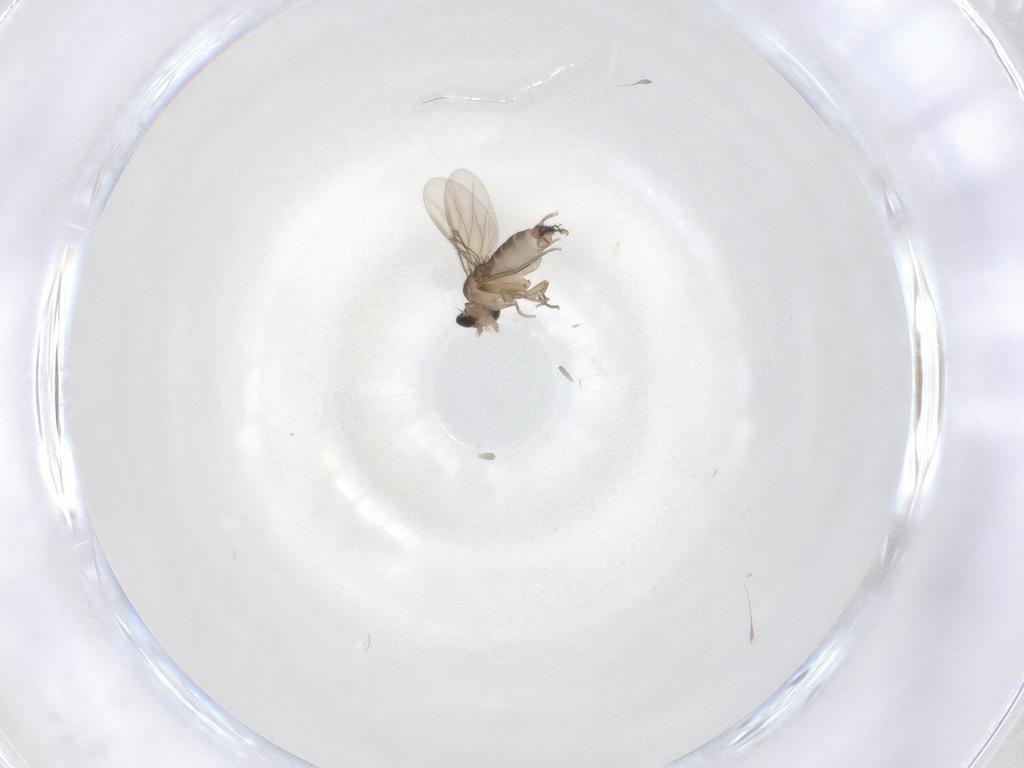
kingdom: Animalia
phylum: Arthropoda
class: Insecta
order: Diptera
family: Phoridae
